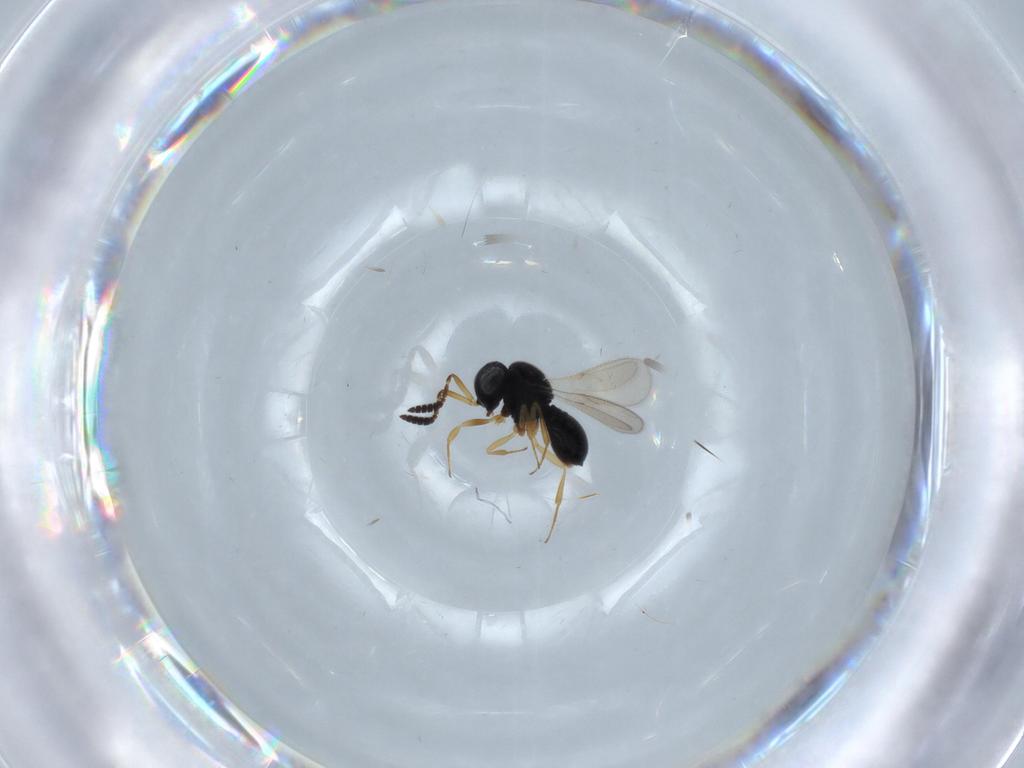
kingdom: Animalia
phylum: Arthropoda
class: Insecta
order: Hymenoptera
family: Scelionidae
